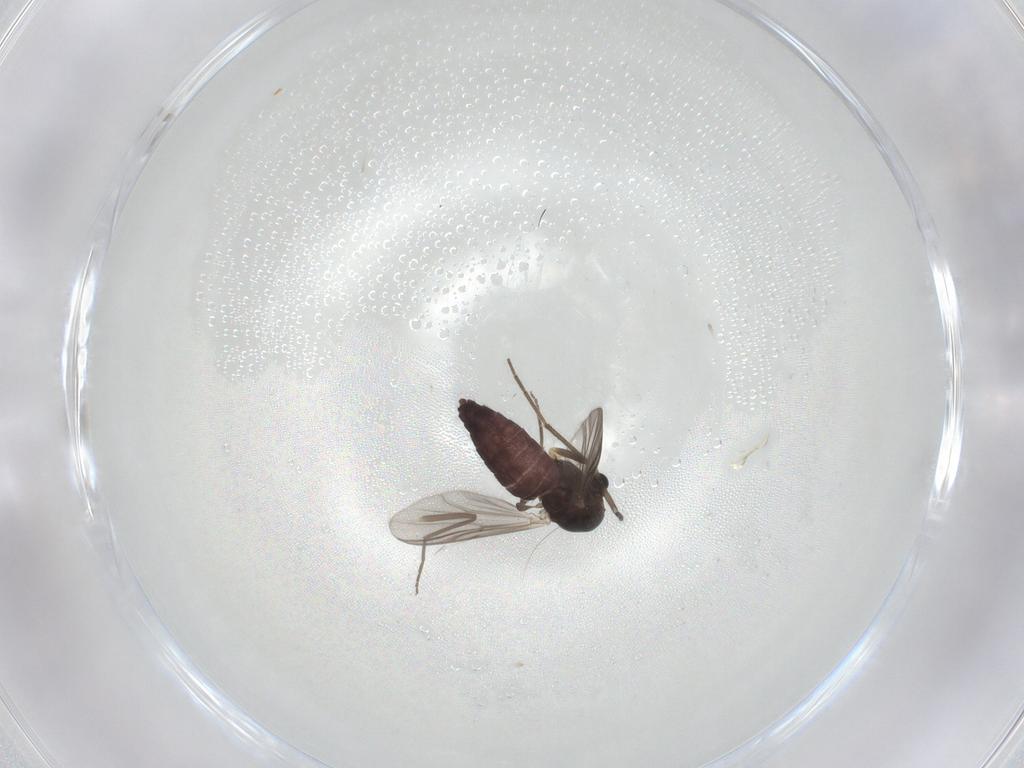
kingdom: Animalia
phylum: Arthropoda
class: Insecta
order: Diptera
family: Chironomidae
